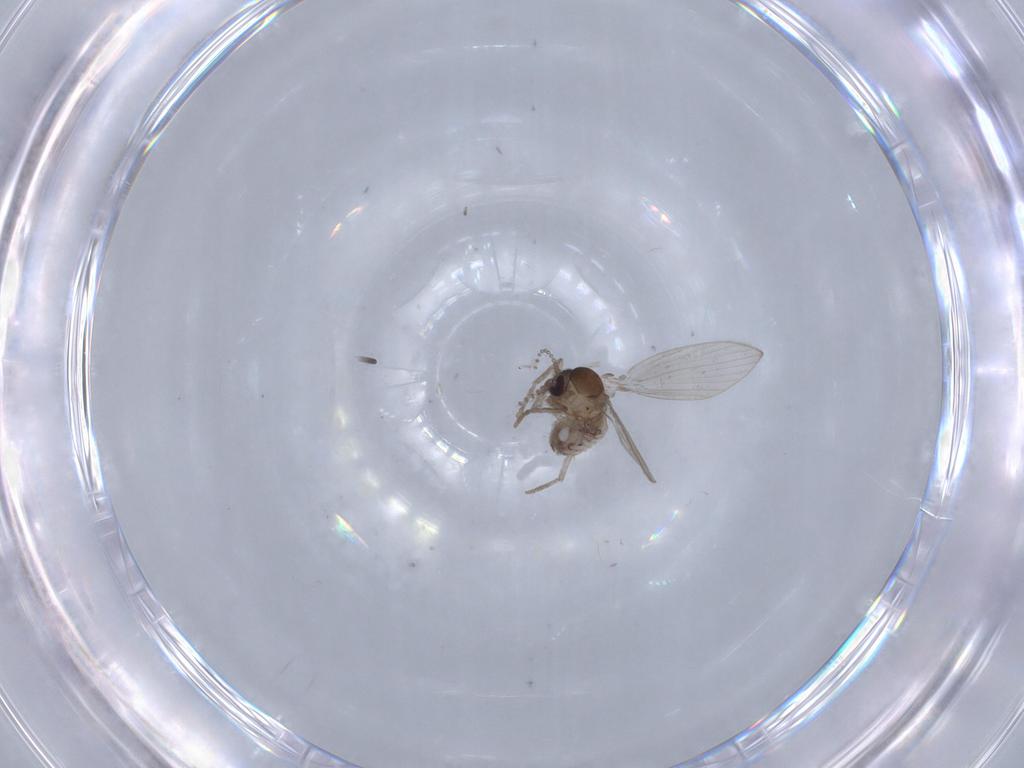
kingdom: Animalia
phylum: Arthropoda
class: Insecta
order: Diptera
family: Psychodidae
